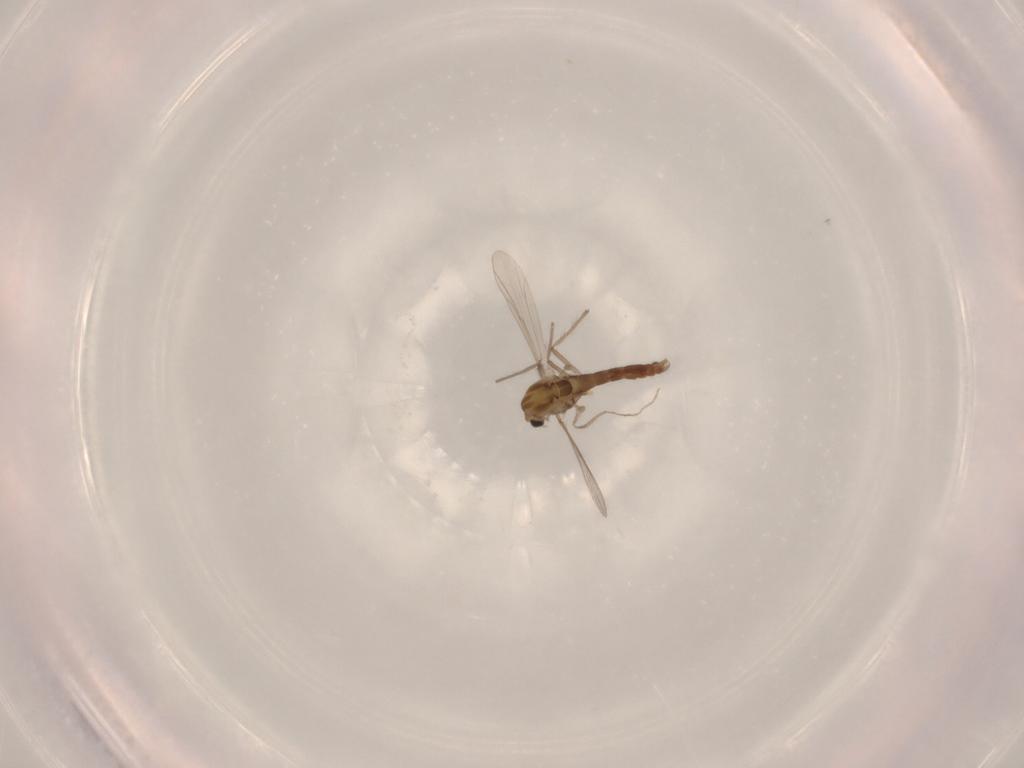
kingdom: Animalia
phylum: Arthropoda
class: Insecta
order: Diptera
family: Chironomidae
